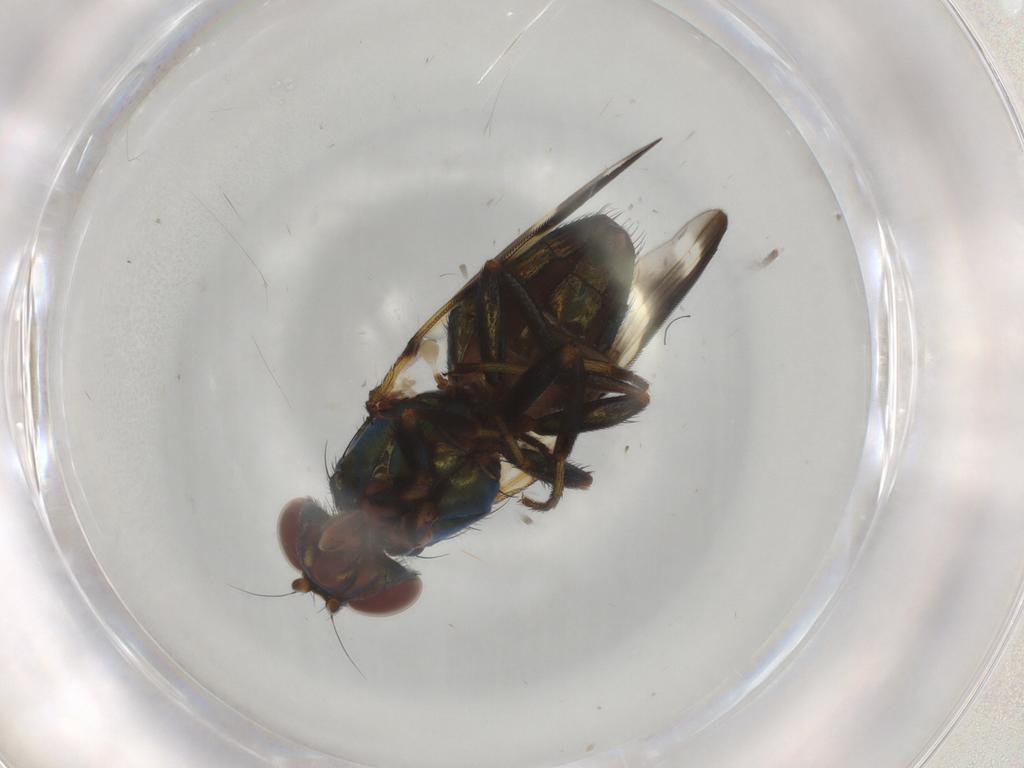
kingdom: Animalia
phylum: Arthropoda
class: Insecta
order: Diptera
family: Ulidiidae
